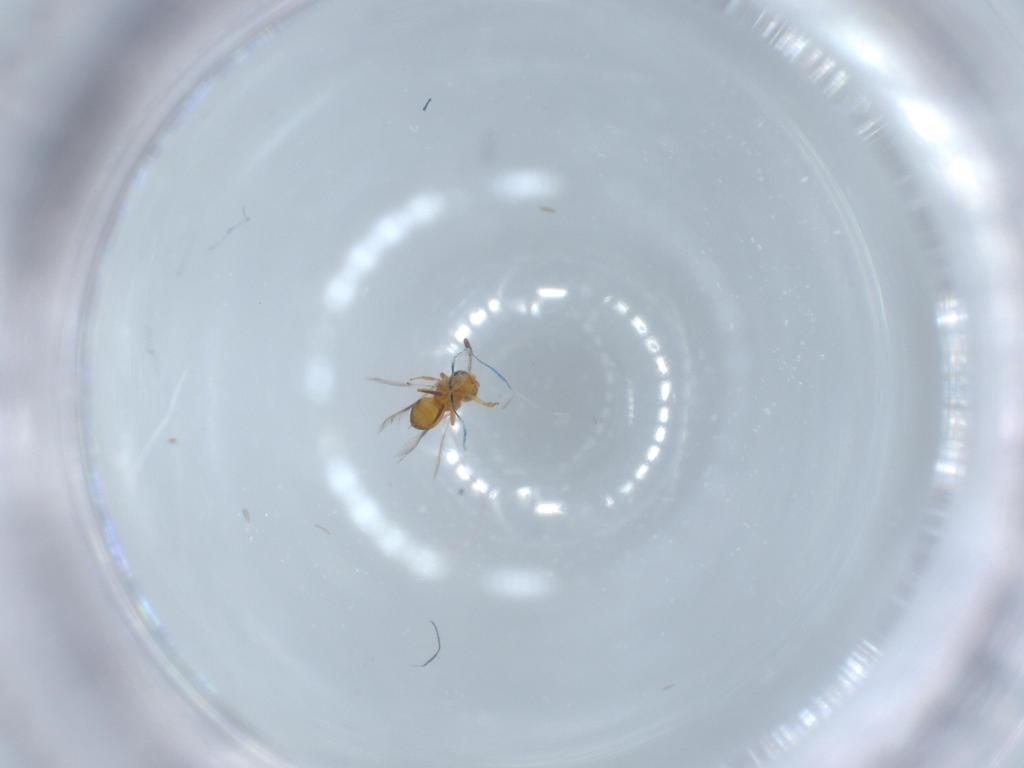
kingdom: Animalia
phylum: Arthropoda
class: Insecta
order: Hymenoptera
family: Scelionidae
